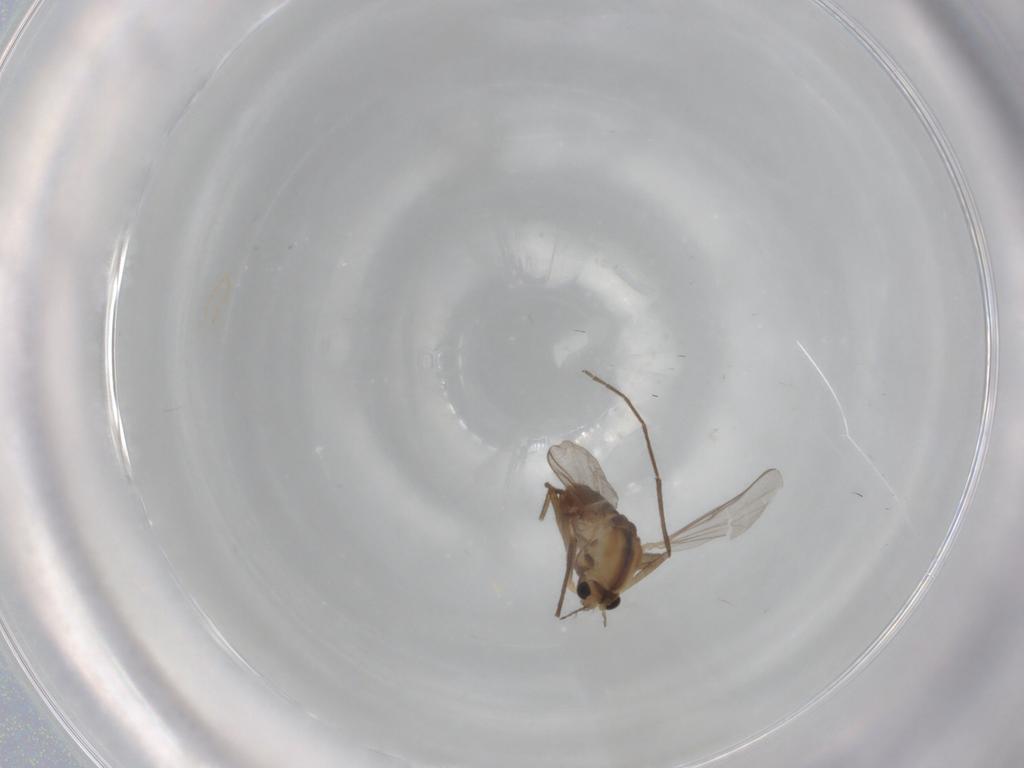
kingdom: Animalia
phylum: Arthropoda
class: Insecta
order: Diptera
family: Chironomidae
